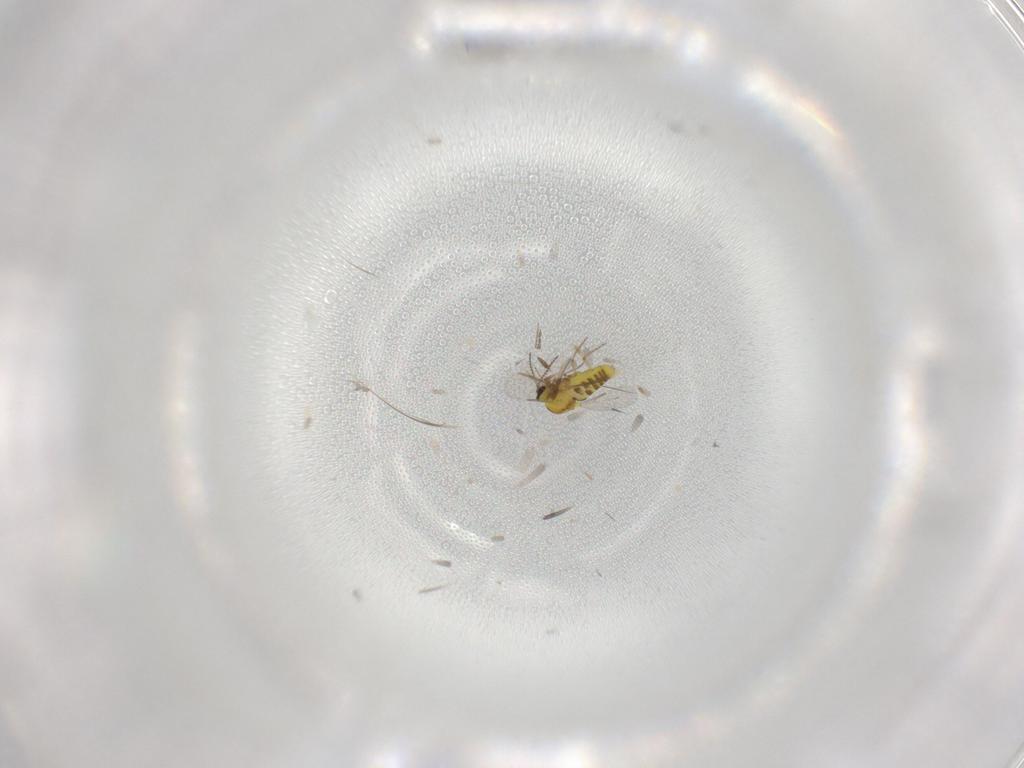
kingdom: Animalia
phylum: Arthropoda
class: Insecta
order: Diptera
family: Ceratopogonidae
